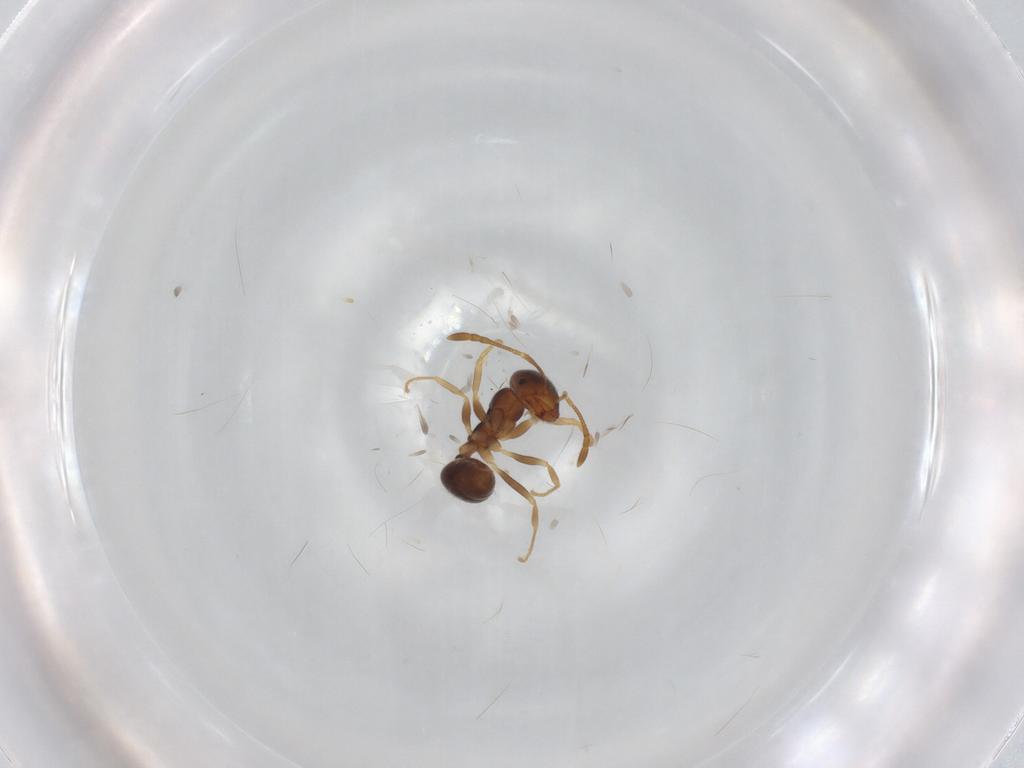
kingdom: Animalia
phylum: Arthropoda
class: Insecta
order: Hymenoptera
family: Formicidae
